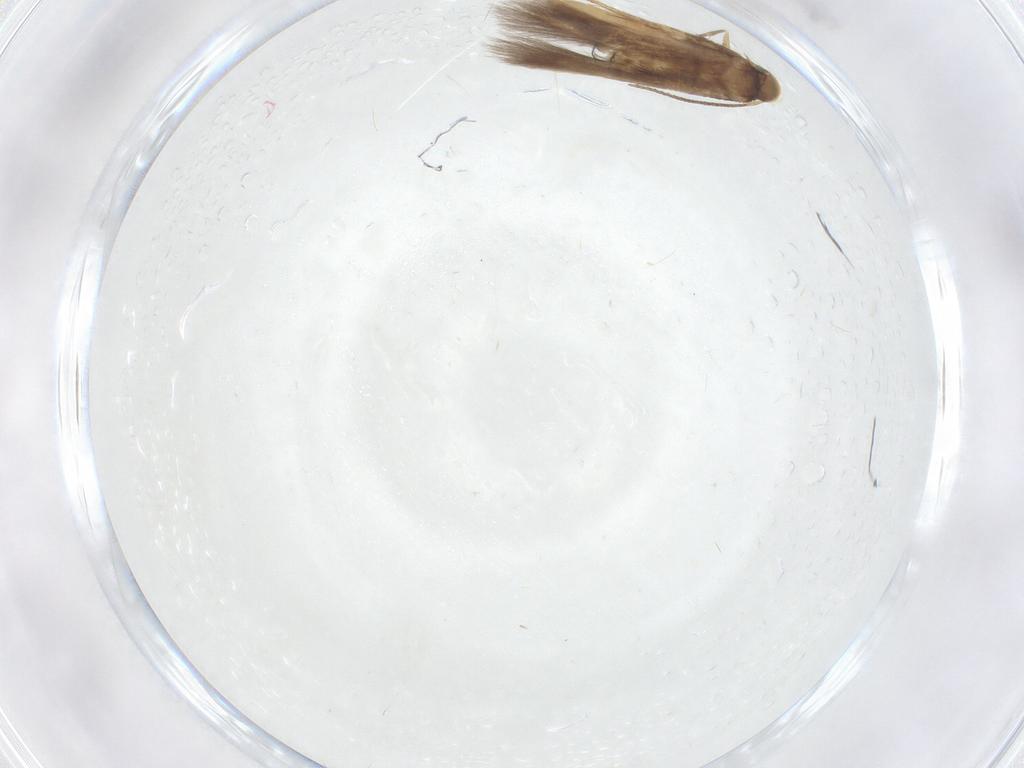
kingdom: Animalia
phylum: Arthropoda
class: Insecta
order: Lepidoptera
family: Pyralidae
